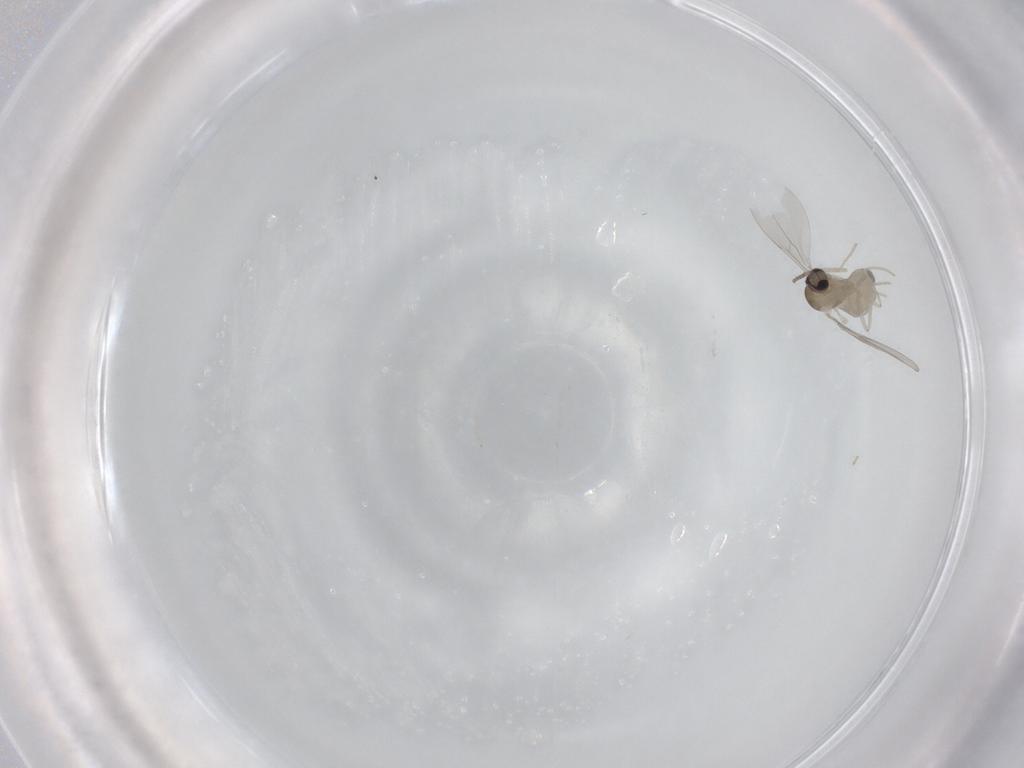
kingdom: Animalia
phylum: Arthropoda
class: Insecta
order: Diptera
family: Cecidomyiidae
